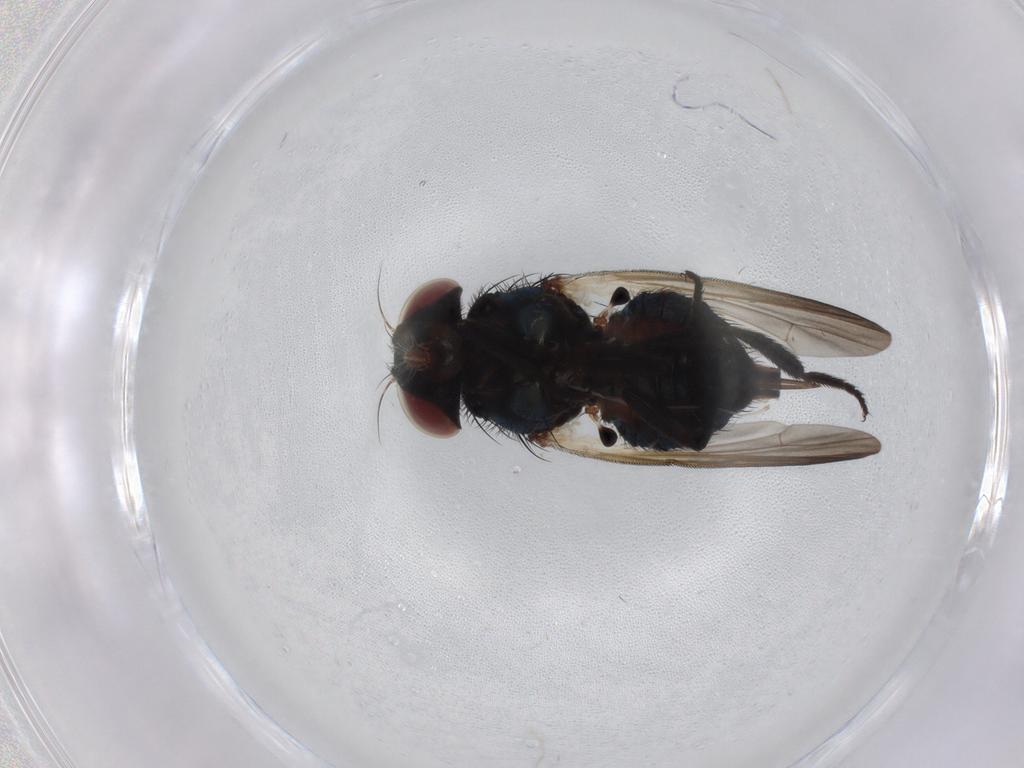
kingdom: Animalia
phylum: Arthropoda
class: Insecta
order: Diptera
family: Lonchaeidae
